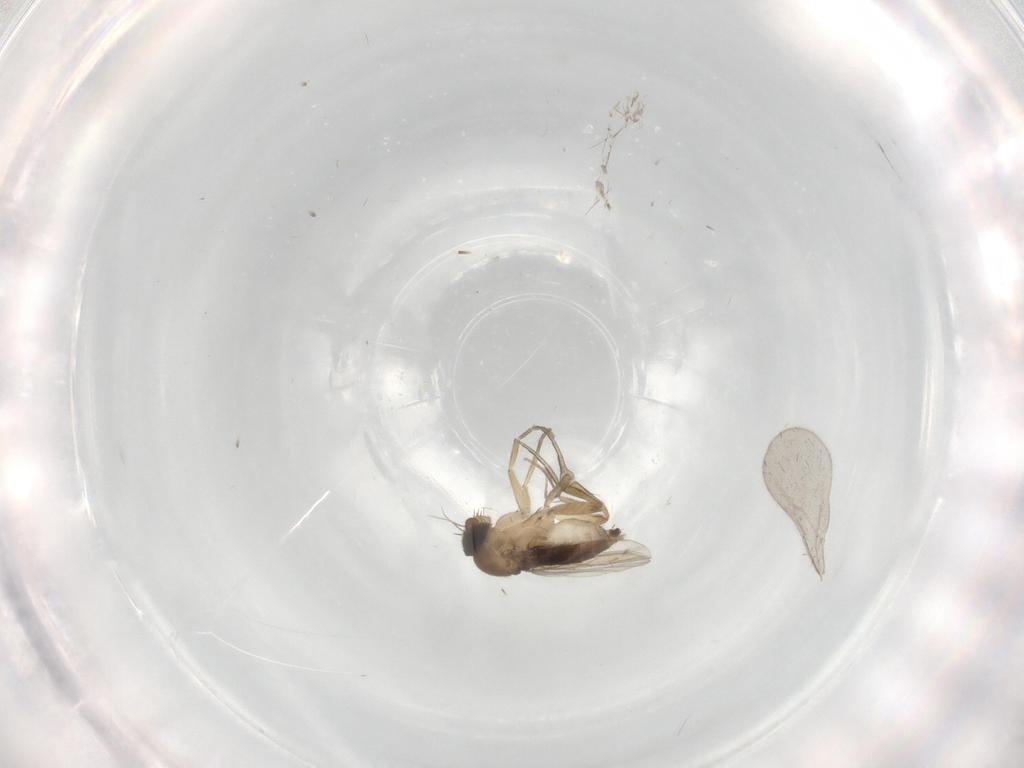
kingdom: Animalia
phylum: Arthropoda
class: Insecta
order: Diptera
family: Phoridae
